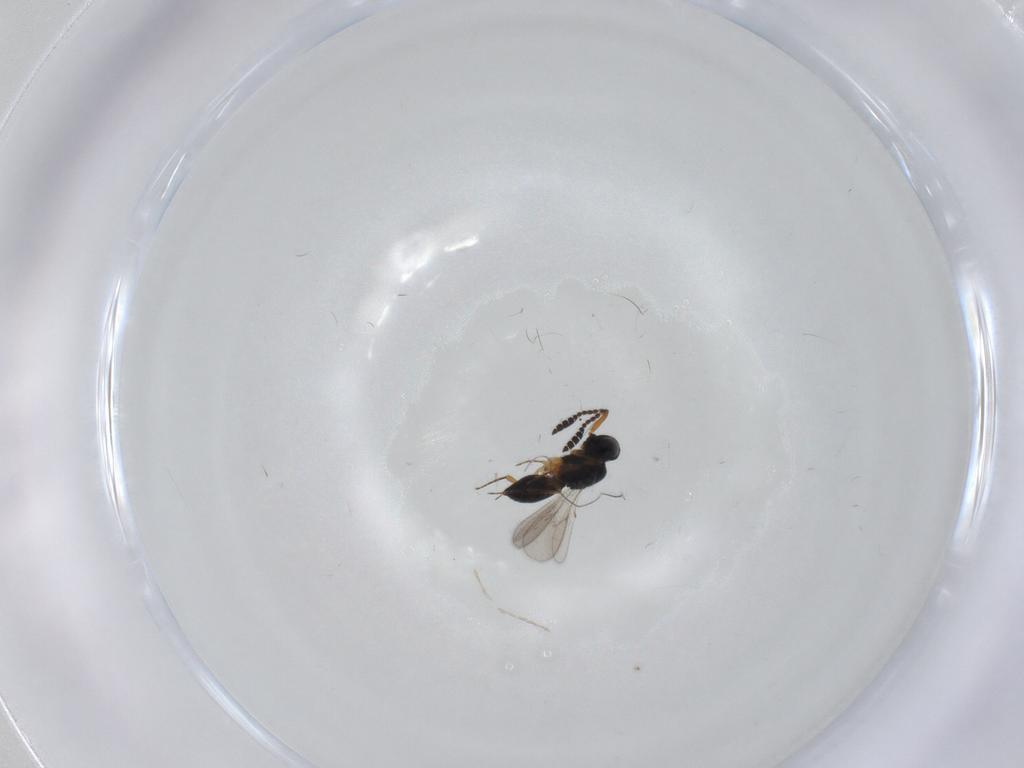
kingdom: Animalia
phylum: Arthropoda
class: Insecta
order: Hymenoptera
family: Scelionidae
